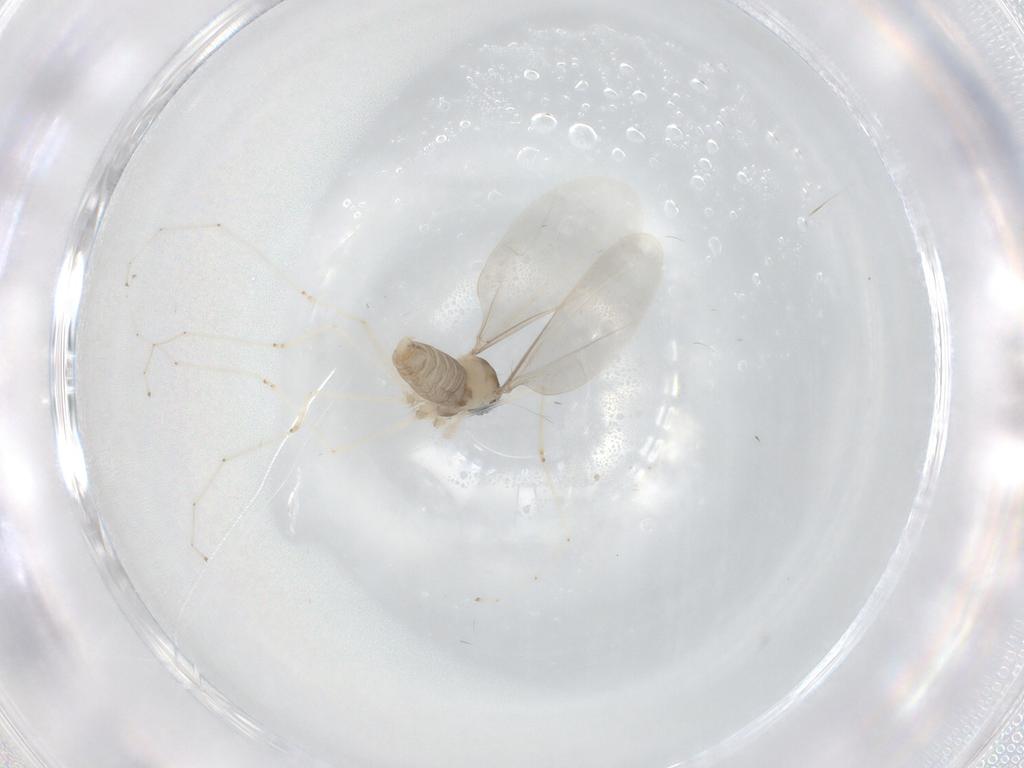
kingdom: Animalia
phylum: Arthropoda
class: Insecta
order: Diptera
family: Cecidomyiidae
